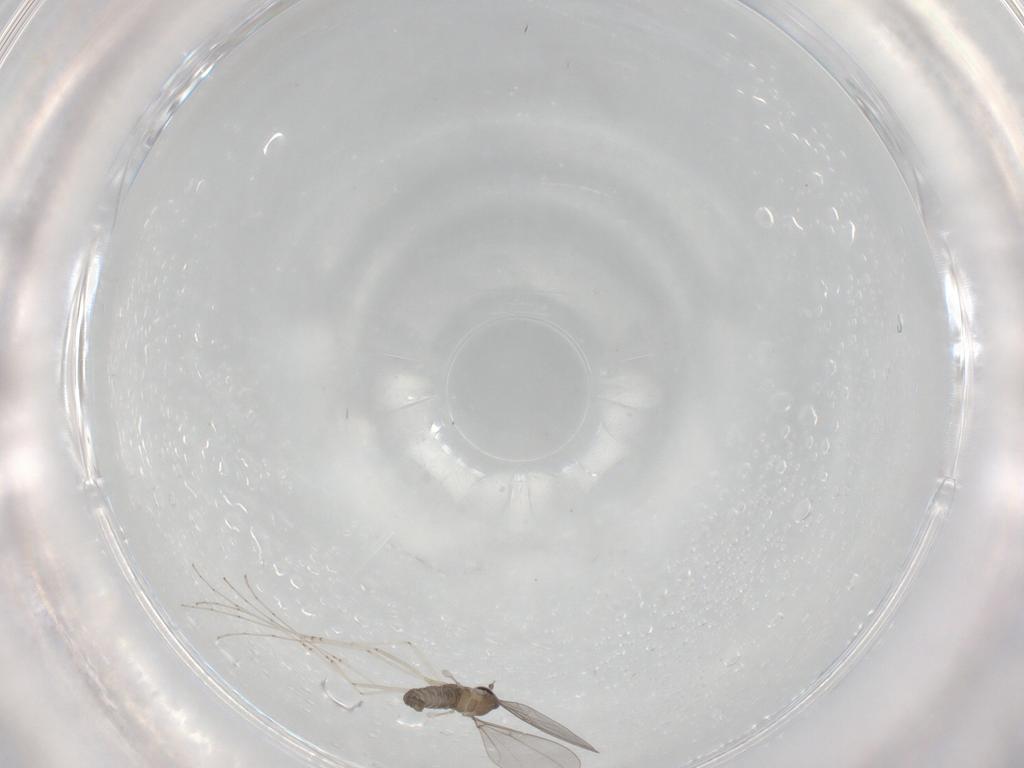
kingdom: Animalia
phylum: Arthropoda
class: Insecta
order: Diptera
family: Cecidomyiidae
